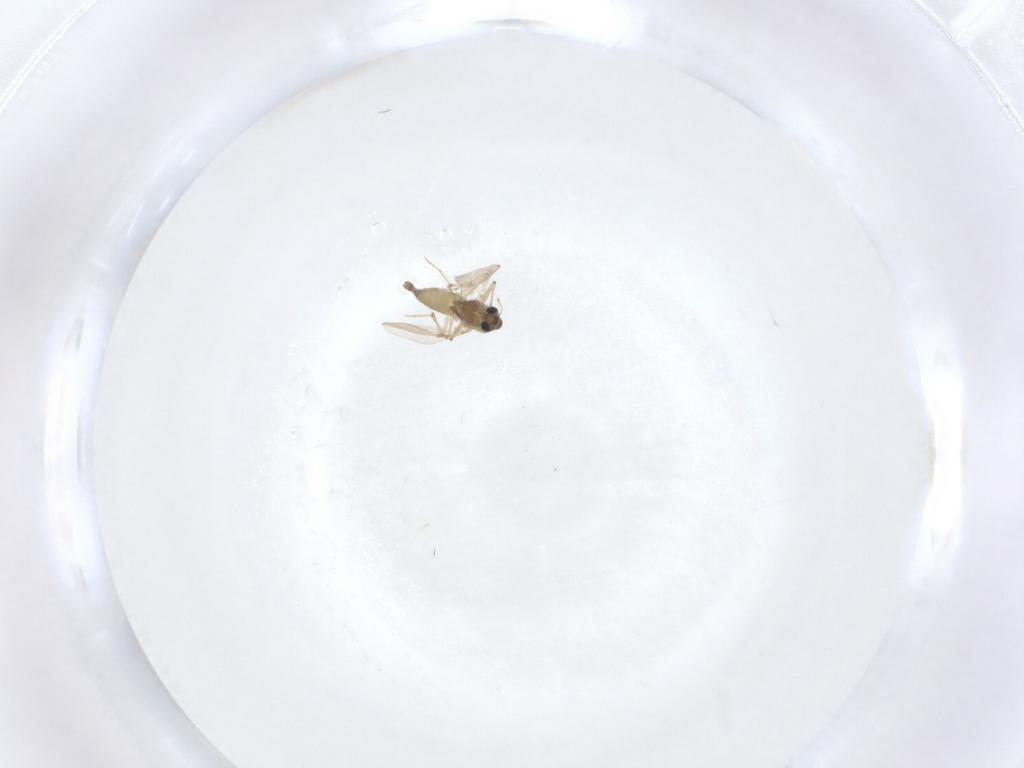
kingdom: Animalia
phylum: Arthropoda
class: Insecta
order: Diptera
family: Chironomidae
